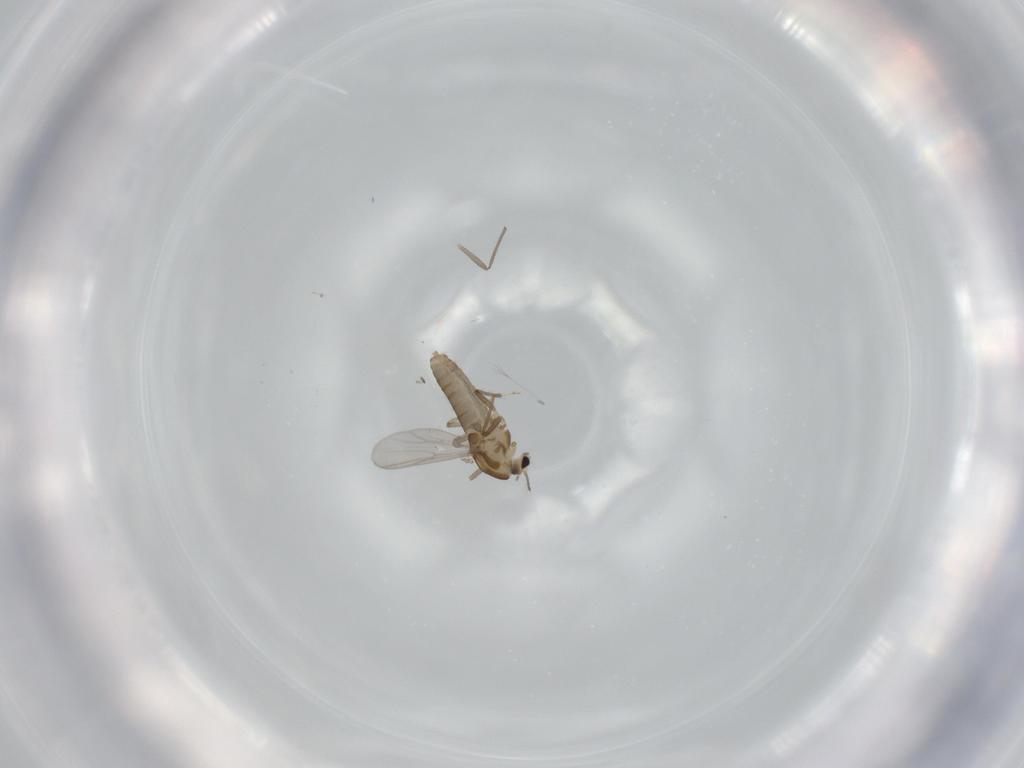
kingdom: Animalia
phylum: Arthropoda
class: Insecta
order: Diptera
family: Chironomidae
